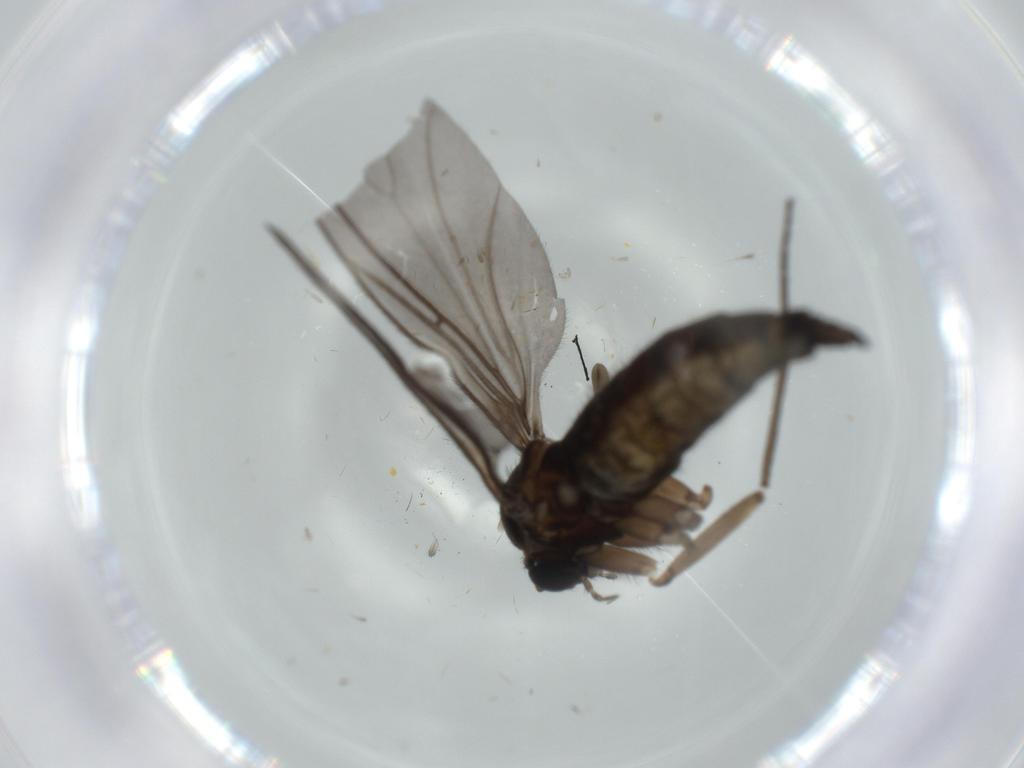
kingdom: Animalia
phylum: Arthropoda
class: Insecta
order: Diptera
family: Sciaridae
